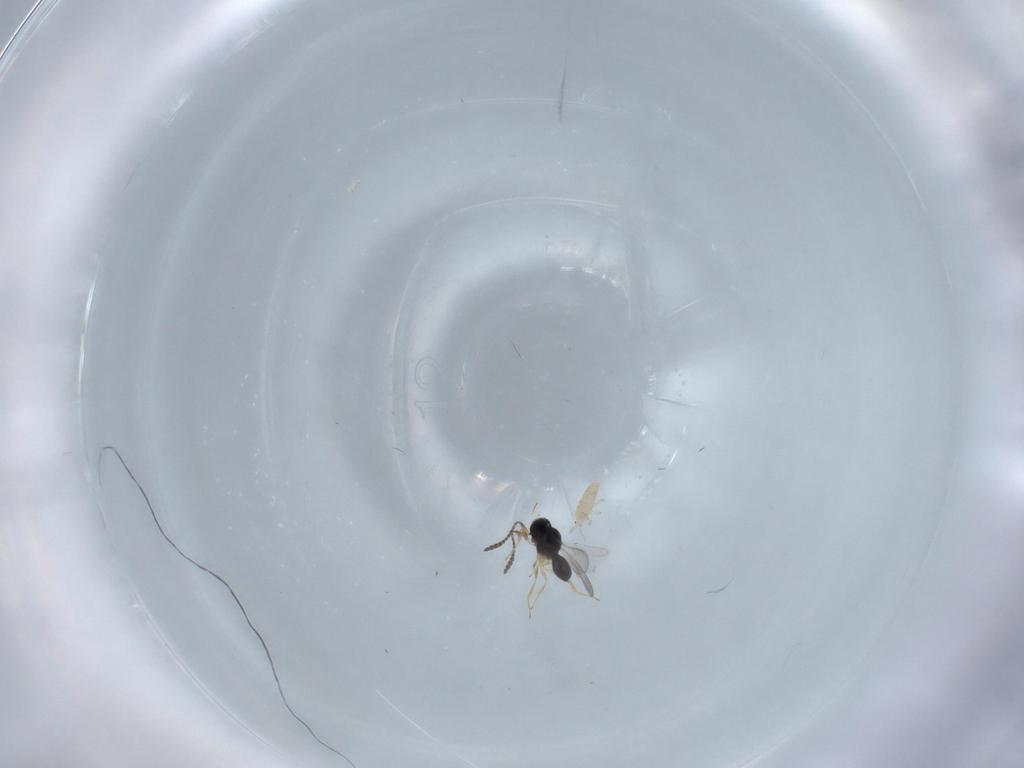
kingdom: Animalia
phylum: Arthropoda
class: Insecta
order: Hymenoptera
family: Scelionidae
